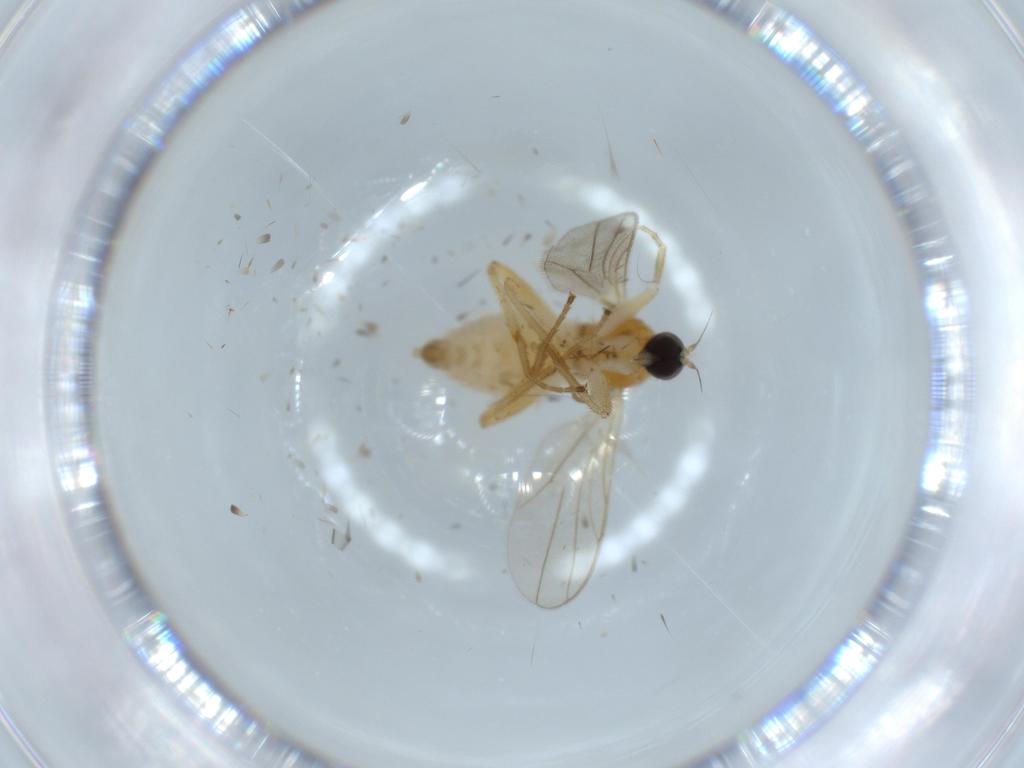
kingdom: Animalia
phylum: Arthropoda
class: Insecta
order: Diptera
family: Hybotidae
